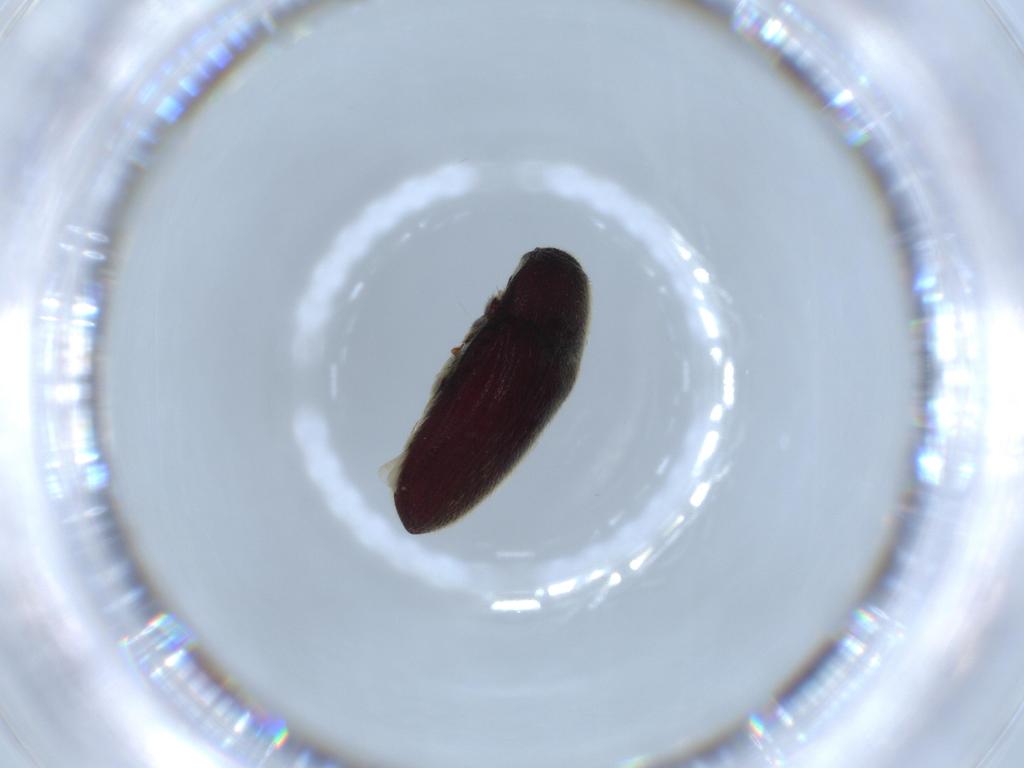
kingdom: Animalia
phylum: Arthropoda
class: Insecta
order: Coleoptera
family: Throscidae
